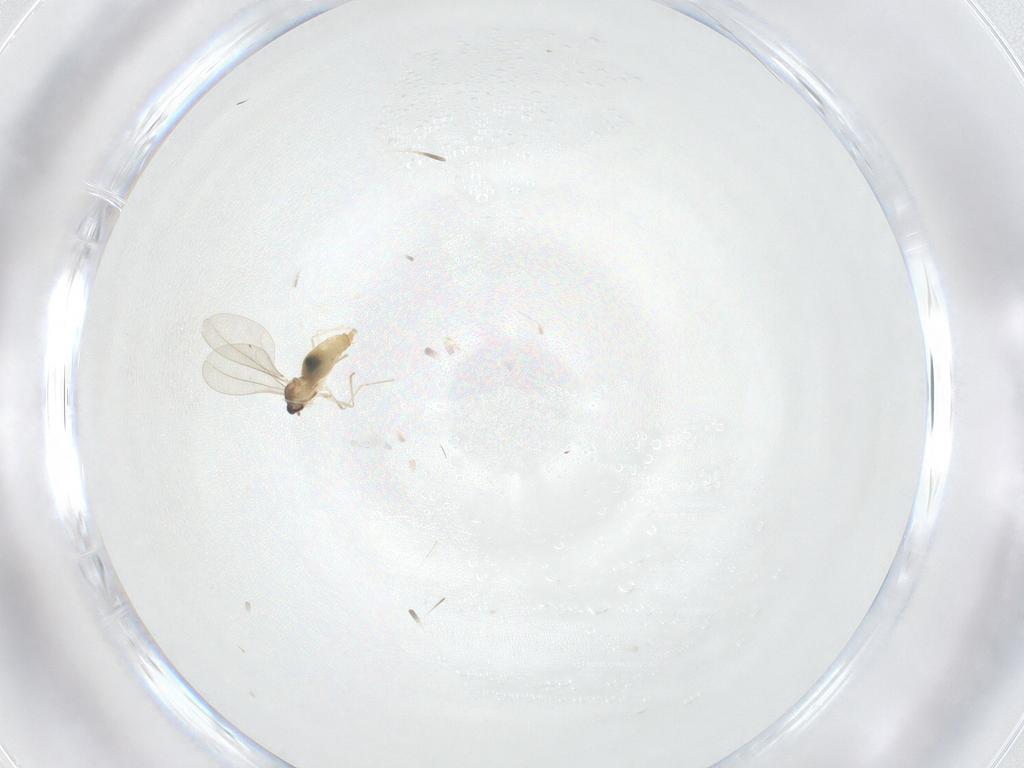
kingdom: Animalia
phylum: Arthropoda
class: Insecta
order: Diptera
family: Cecidomyiidae
